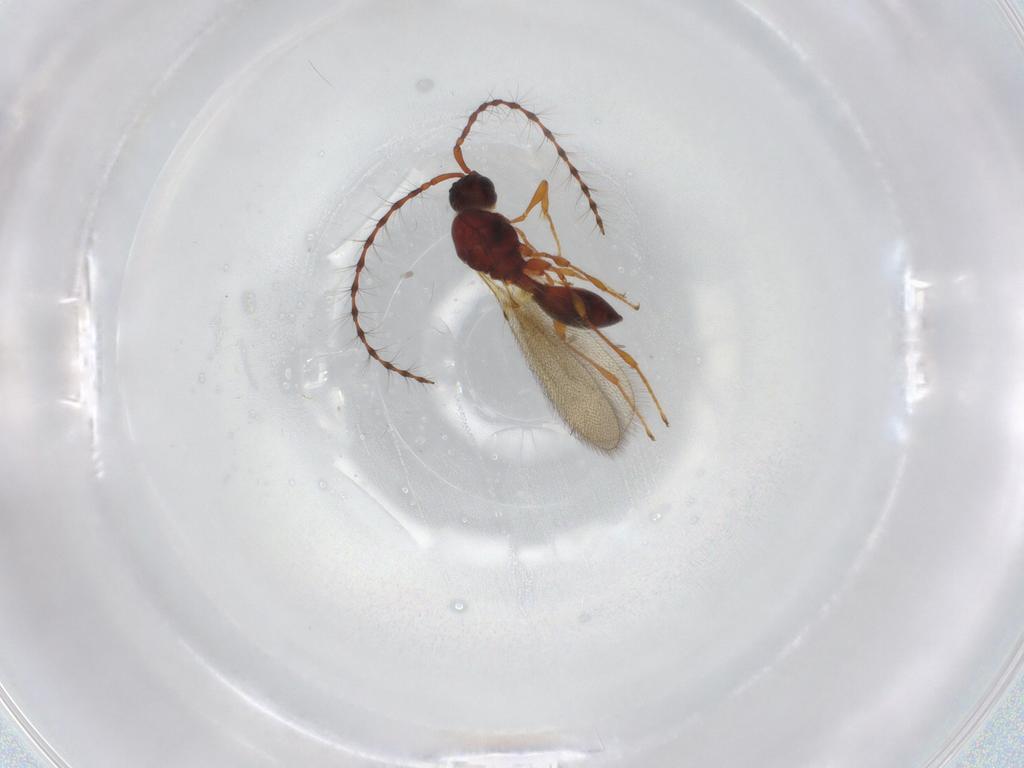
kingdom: Animalia
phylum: Arthropoda
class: Insecta
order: Hymenoptera
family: Diapriidae
